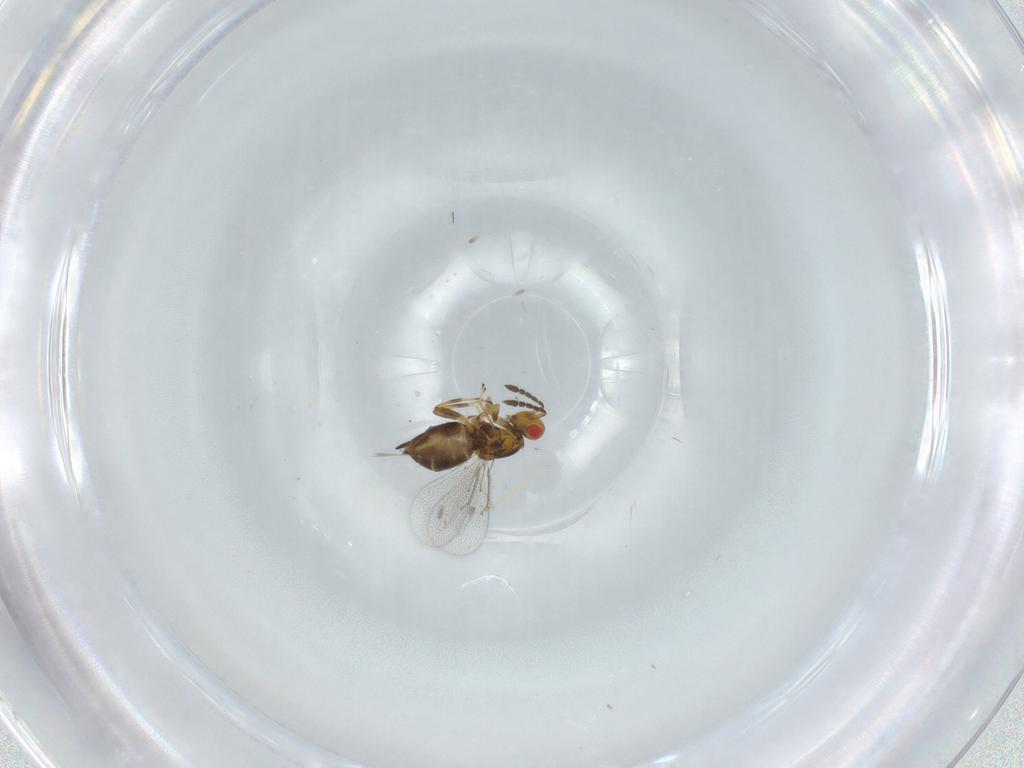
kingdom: Animalia
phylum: Arthropoda
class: Insecta
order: Hymenoptera
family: Eulophidae
